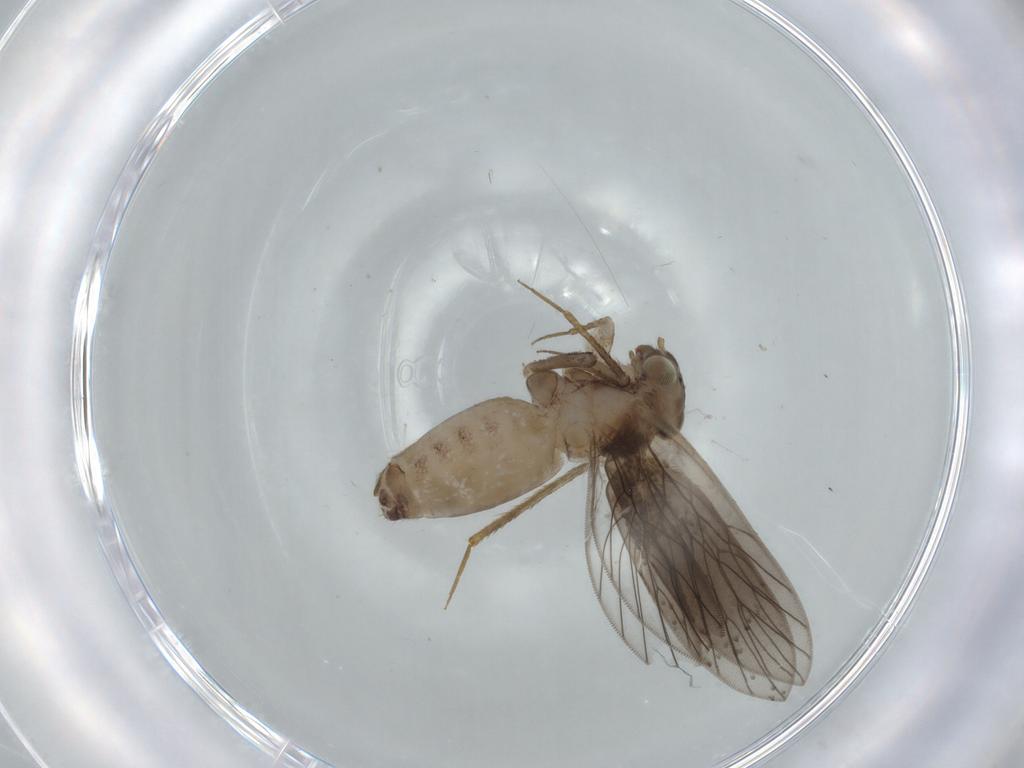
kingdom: Animalia
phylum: Arthropoda
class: Insecta
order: Psocodea
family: Lepidopsocidae
